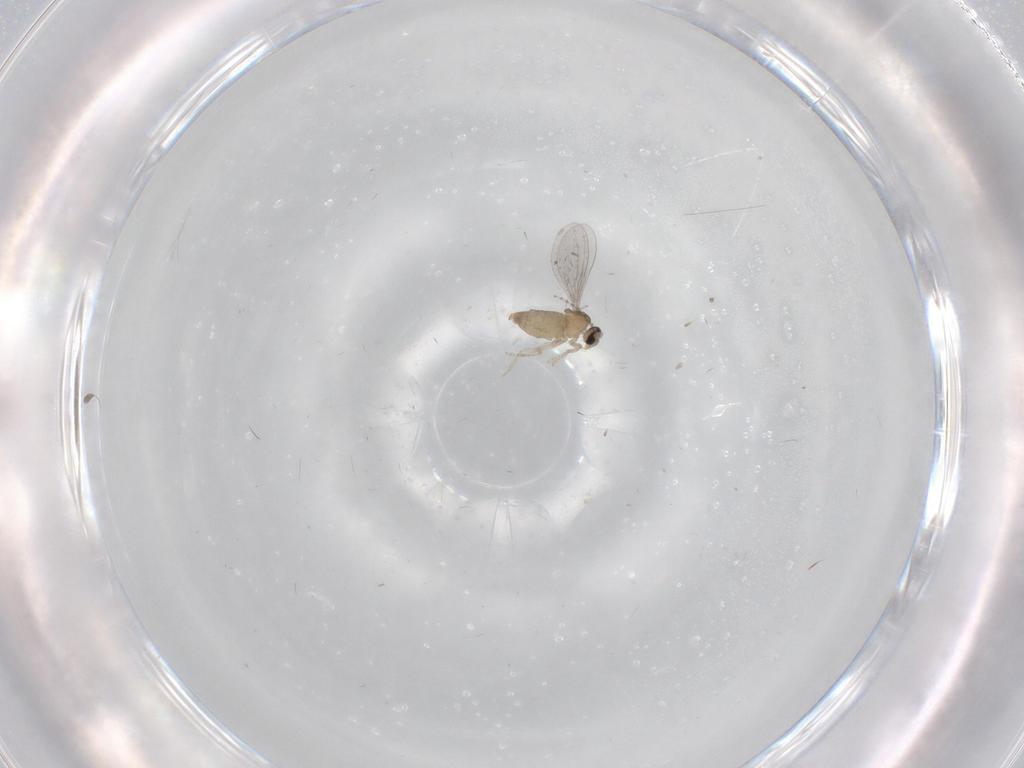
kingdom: Animalia
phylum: Arthropoda
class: Insecta
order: Diptera
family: Cecidomyiidae
